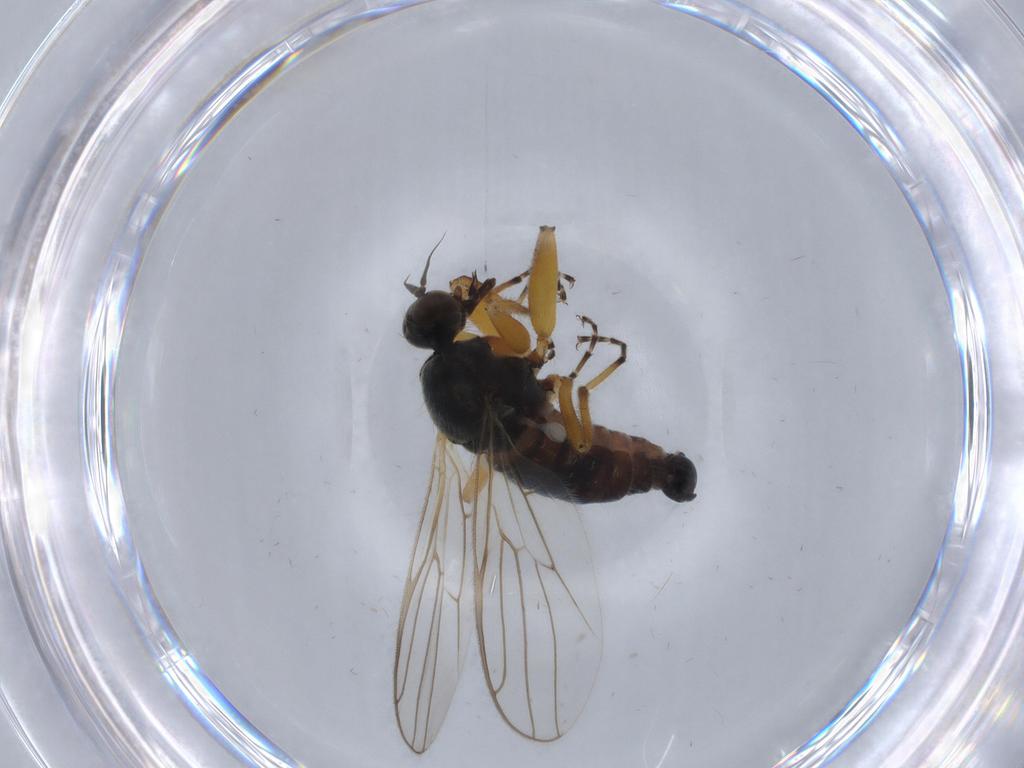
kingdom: Animalia
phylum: Arthropoda
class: Insecta
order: Diptera
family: Hybotidae
